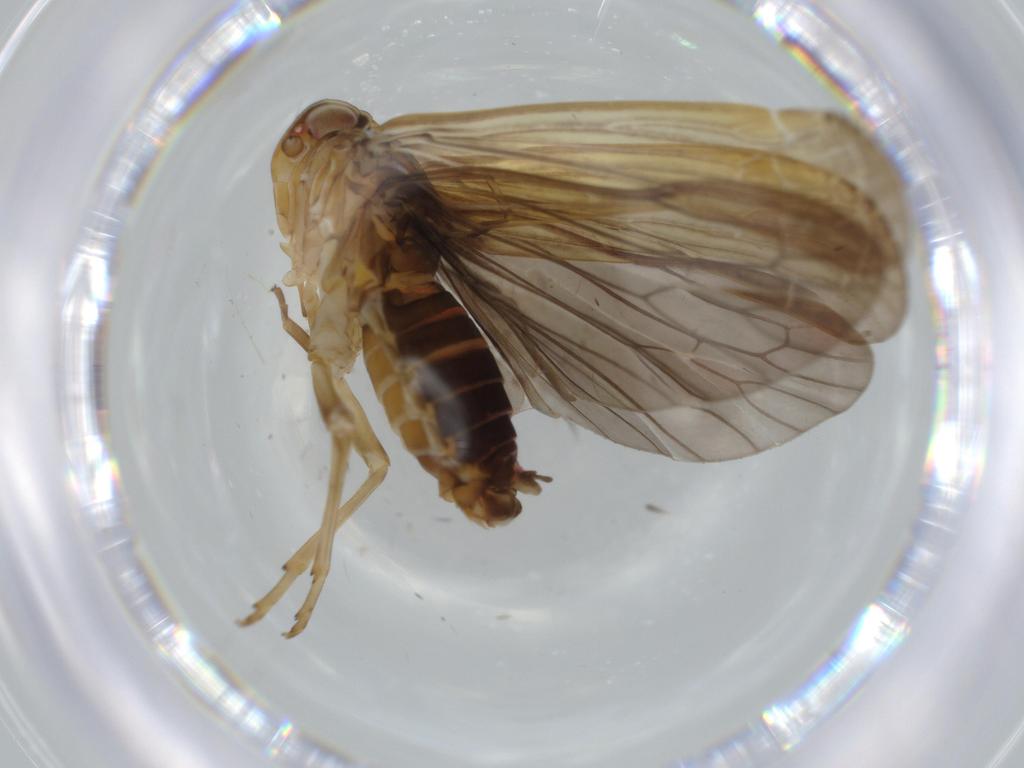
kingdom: Animalia
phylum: Arthropoda
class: Insecta
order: Hemiptera
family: Achilidae
